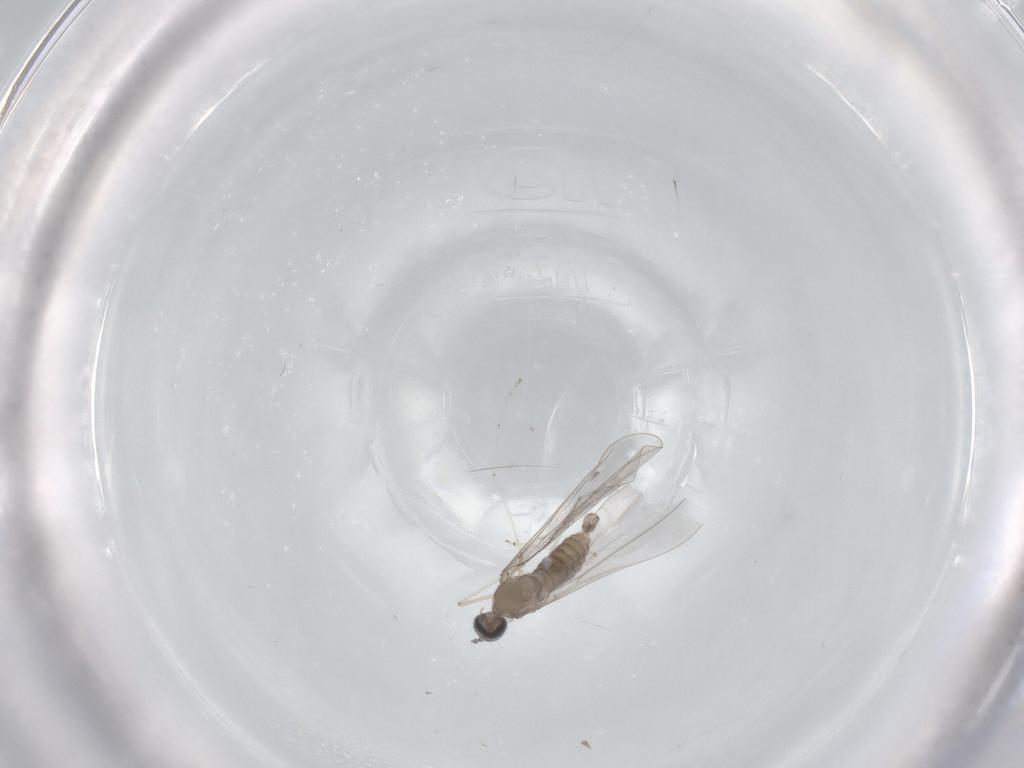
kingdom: Animalia
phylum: Arthropoda
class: Insecta
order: Diptera
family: Cecidomyiidae
